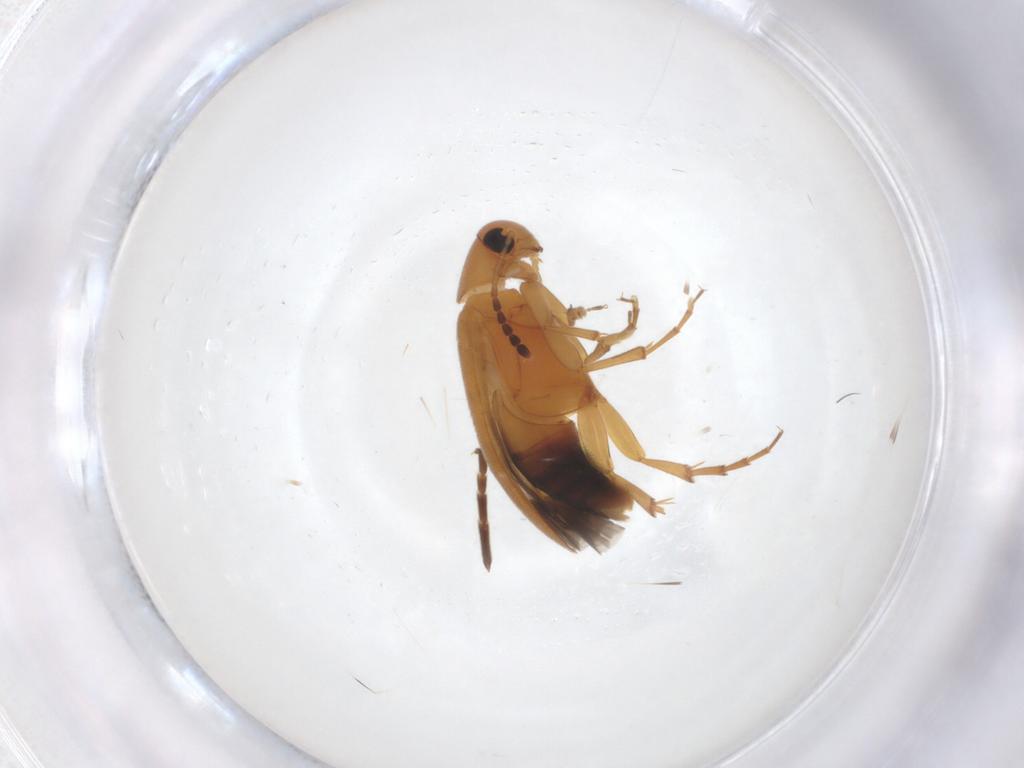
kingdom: Animalia
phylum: Arthropoda
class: Insecta
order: Coleoptera
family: Scraptiidae
